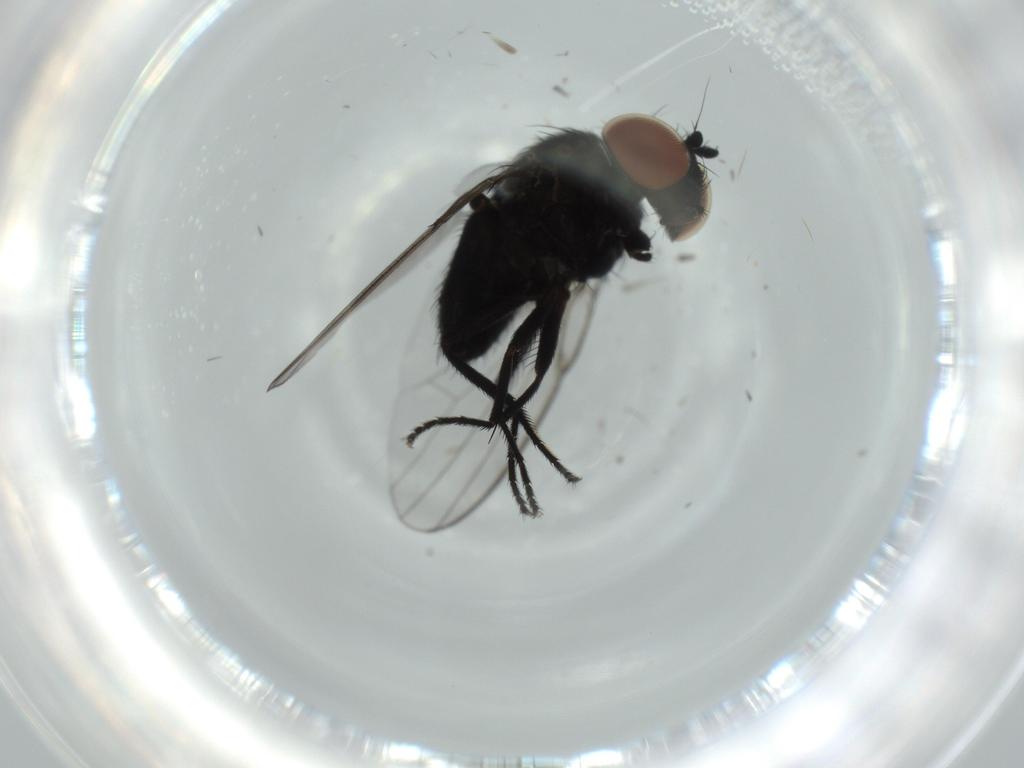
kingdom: Animalia
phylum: Arthropoda
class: Insecta
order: Diptera
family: Milichiidae
